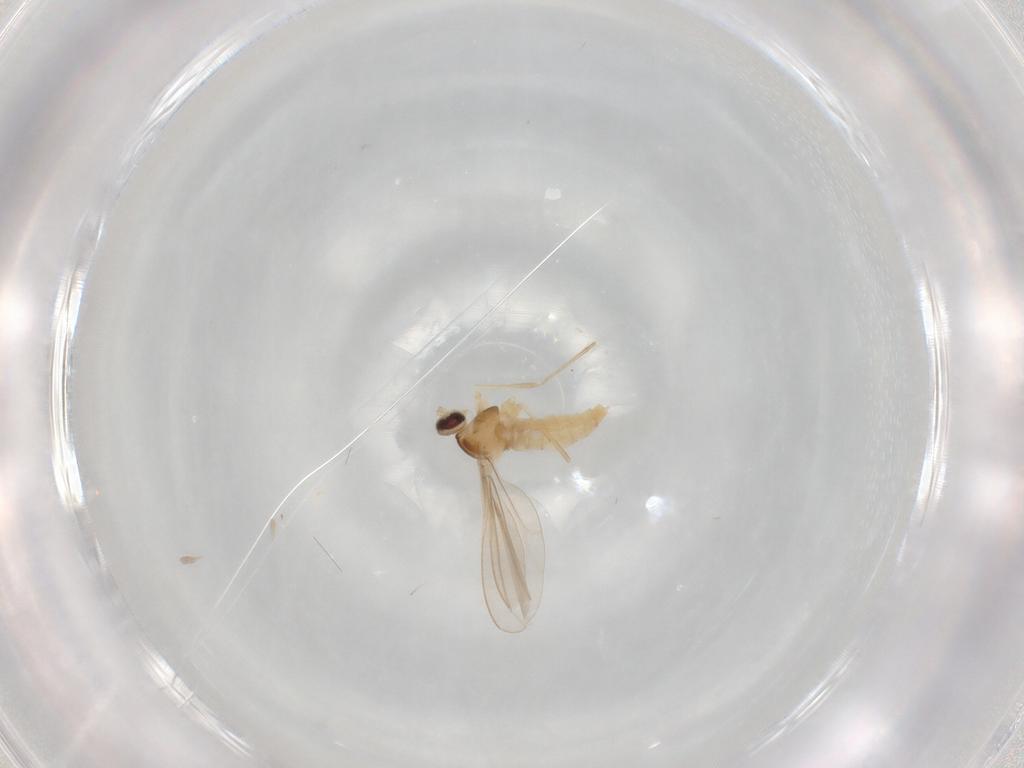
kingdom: Animalia
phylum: Arthropoda
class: Insecta
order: Diptera
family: Cecidomyiidae
